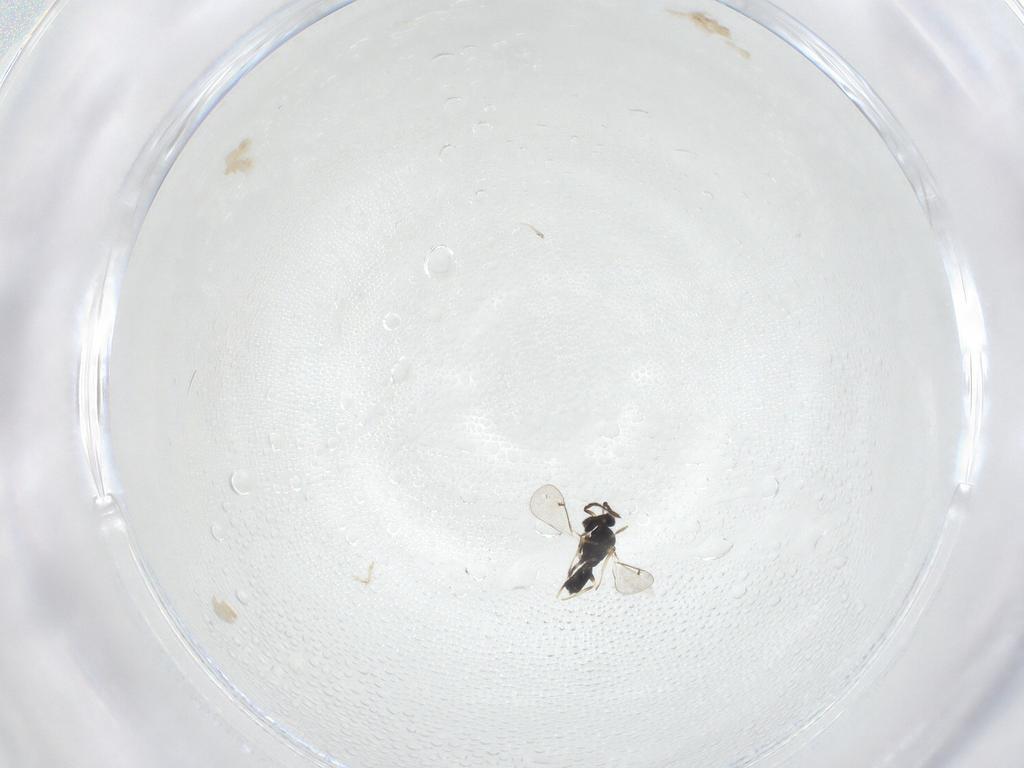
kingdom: Animalia
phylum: Arthropoda
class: Insecta
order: Hymenoptera
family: Eulophidae
